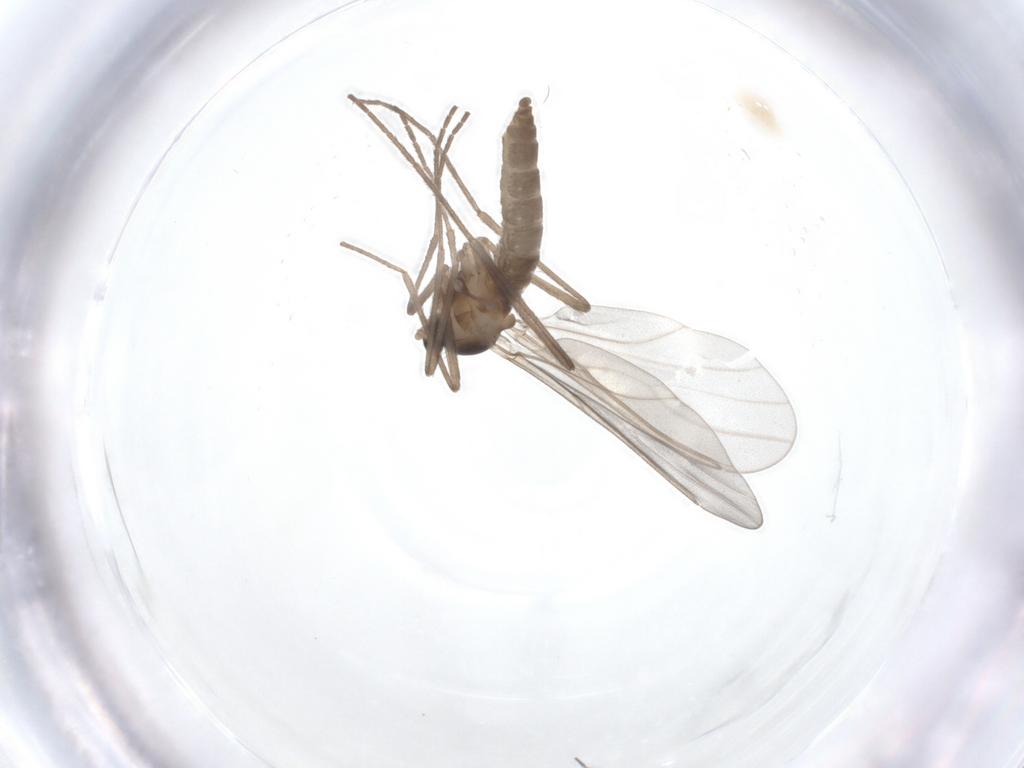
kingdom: Animalia
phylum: Arthropoda
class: Insecta
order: Diptera
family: Cecidomyiidae
